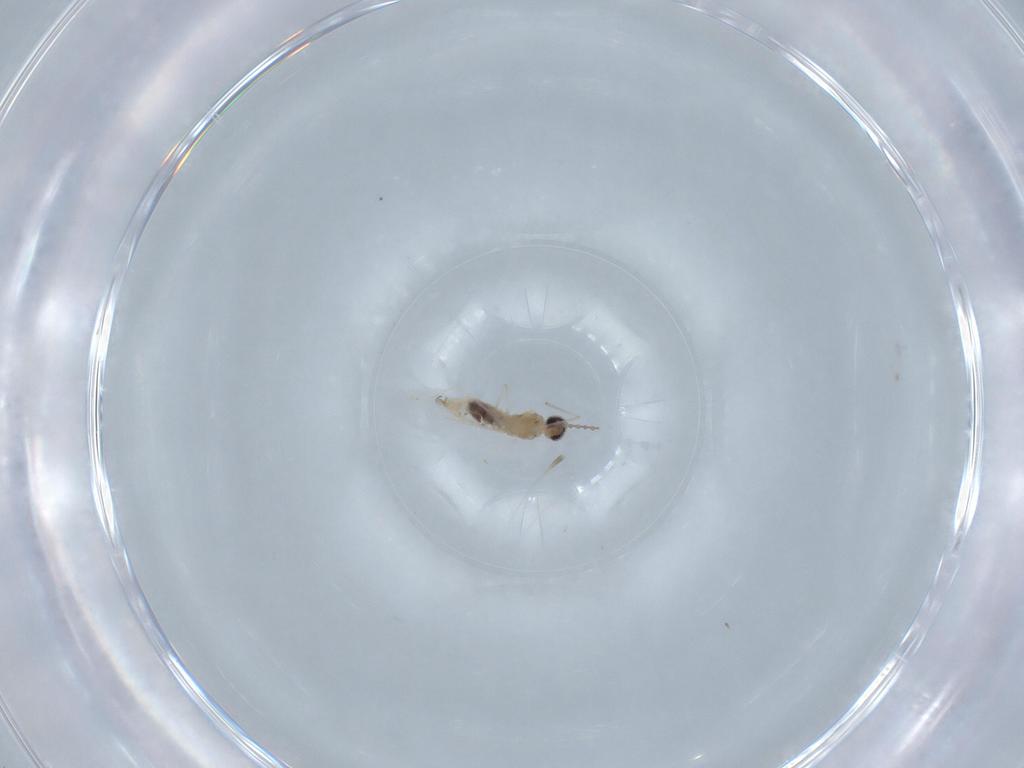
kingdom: Animalia
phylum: Arthropoda
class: Insecta
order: Diptera
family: Cecidomyiidae
